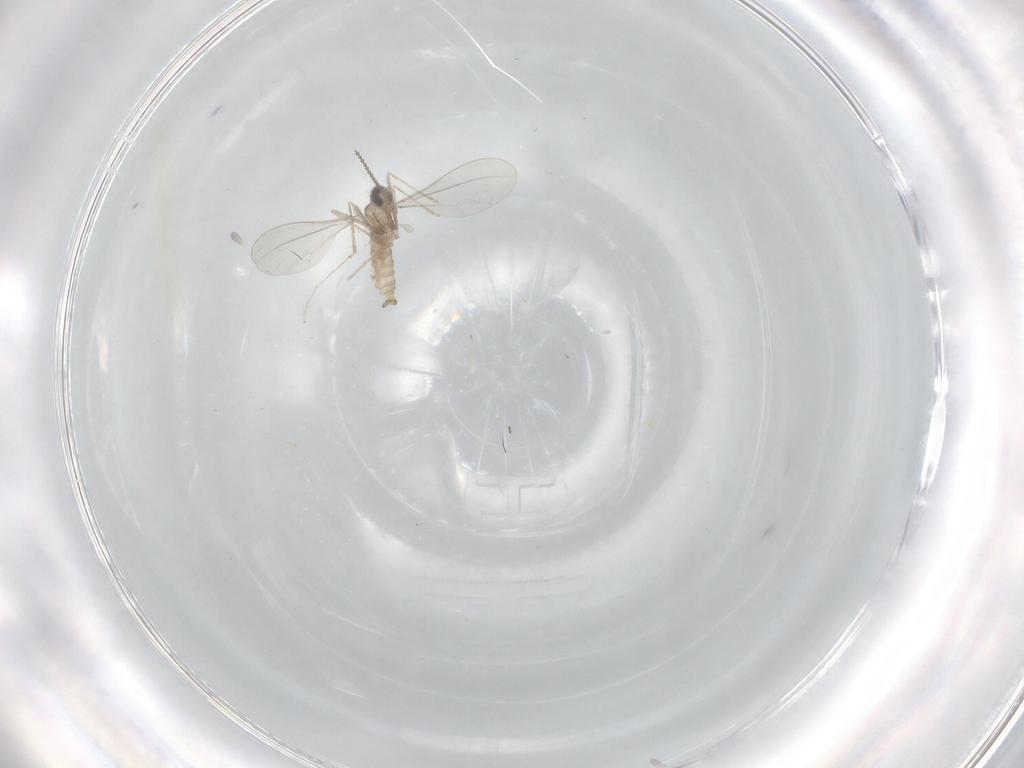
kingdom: Animalia
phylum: Arthropoda
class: Insecta
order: Diptera
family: Cecidomyiidae
